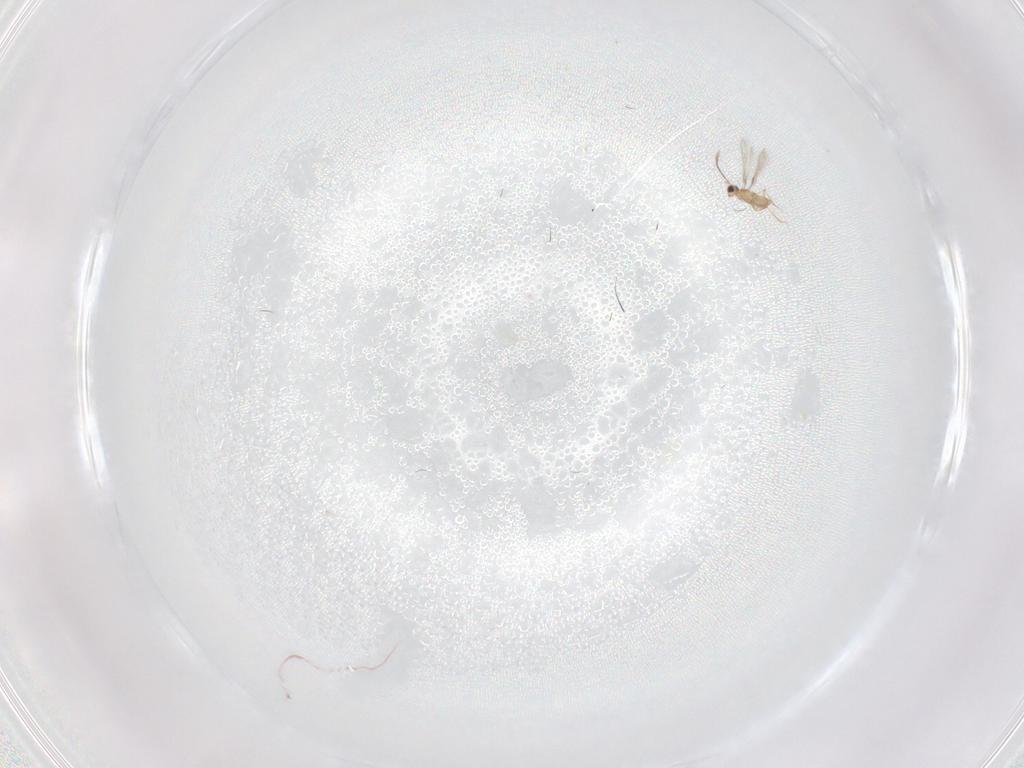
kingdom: Animalia
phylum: Arthropoda
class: Insecta
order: Hymenoptera
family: Mymaridae
